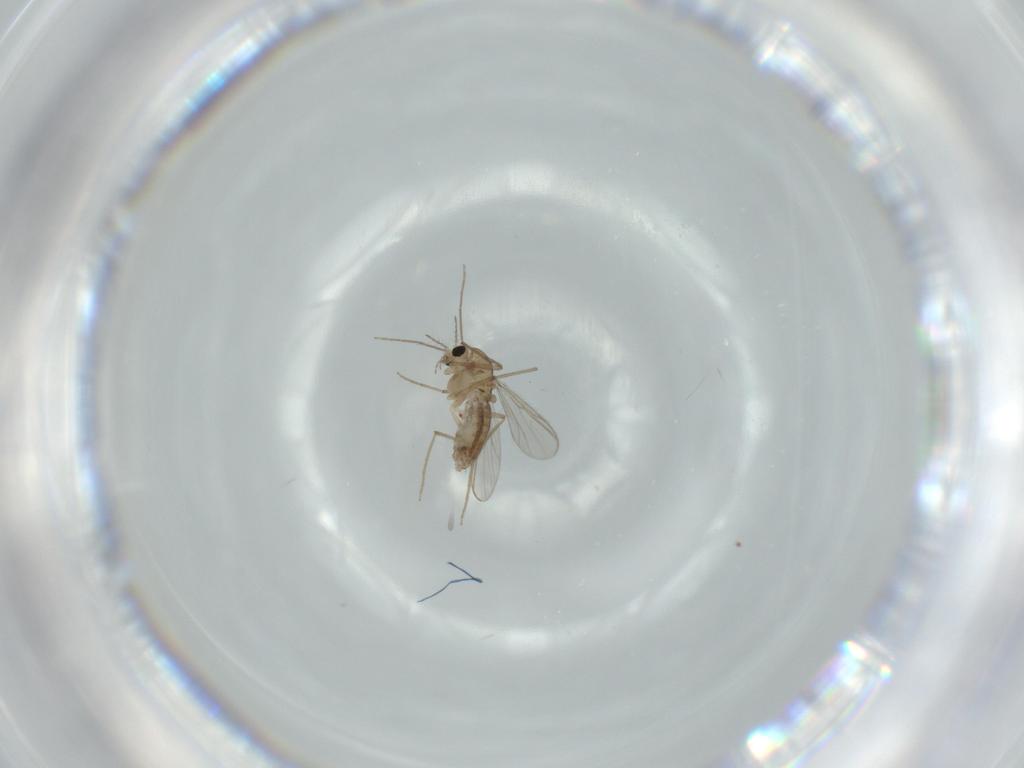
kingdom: Animalia
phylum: Arthropoda
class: Insecta
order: Diptera
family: Chironomidae
